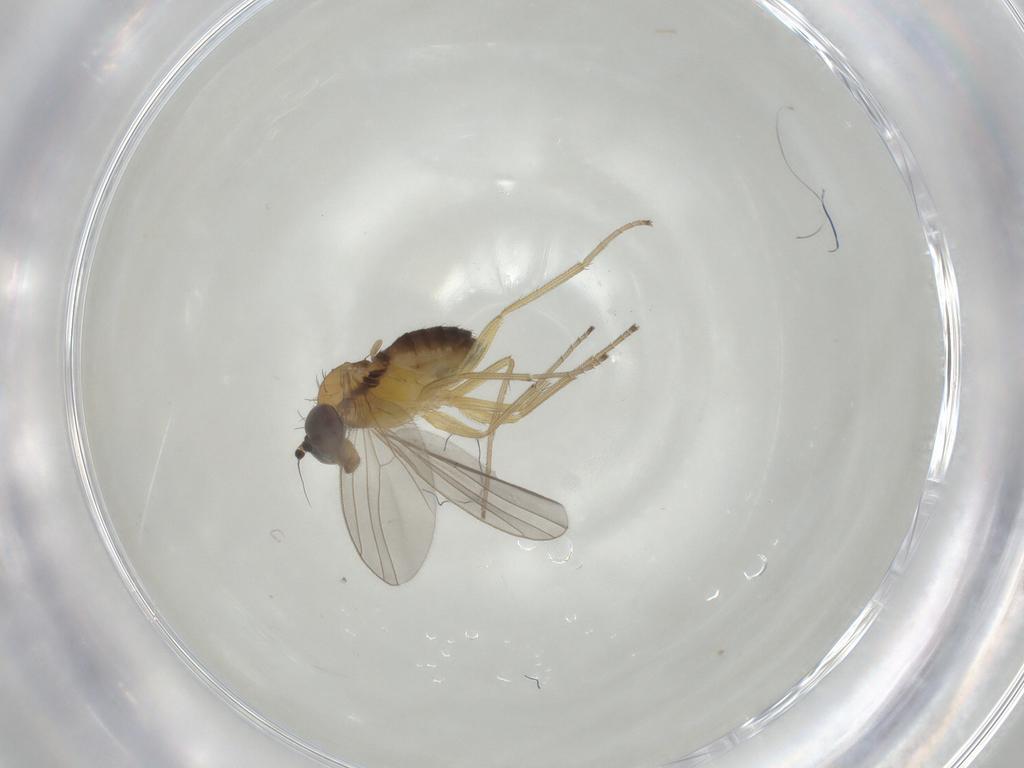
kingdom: Animalia
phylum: Arthropoda
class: Insecta
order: Diptera
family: Dolichopodidae
